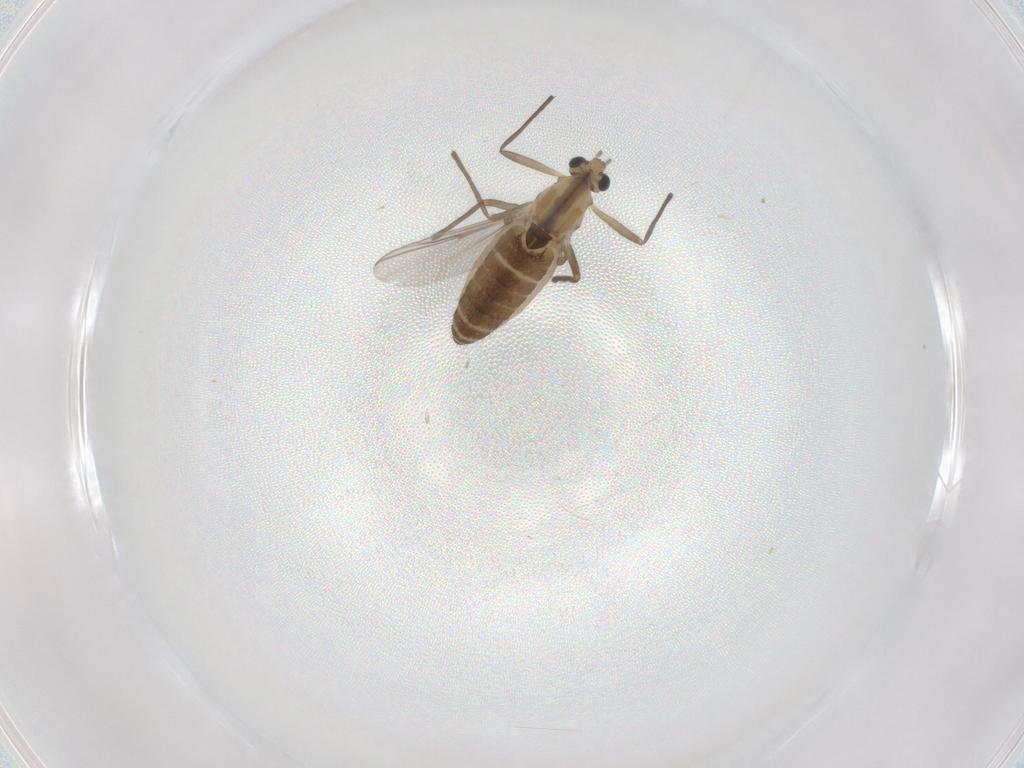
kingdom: Animalia
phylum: Arthropoda
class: Insecta
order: Diptera
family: Chironomidae
